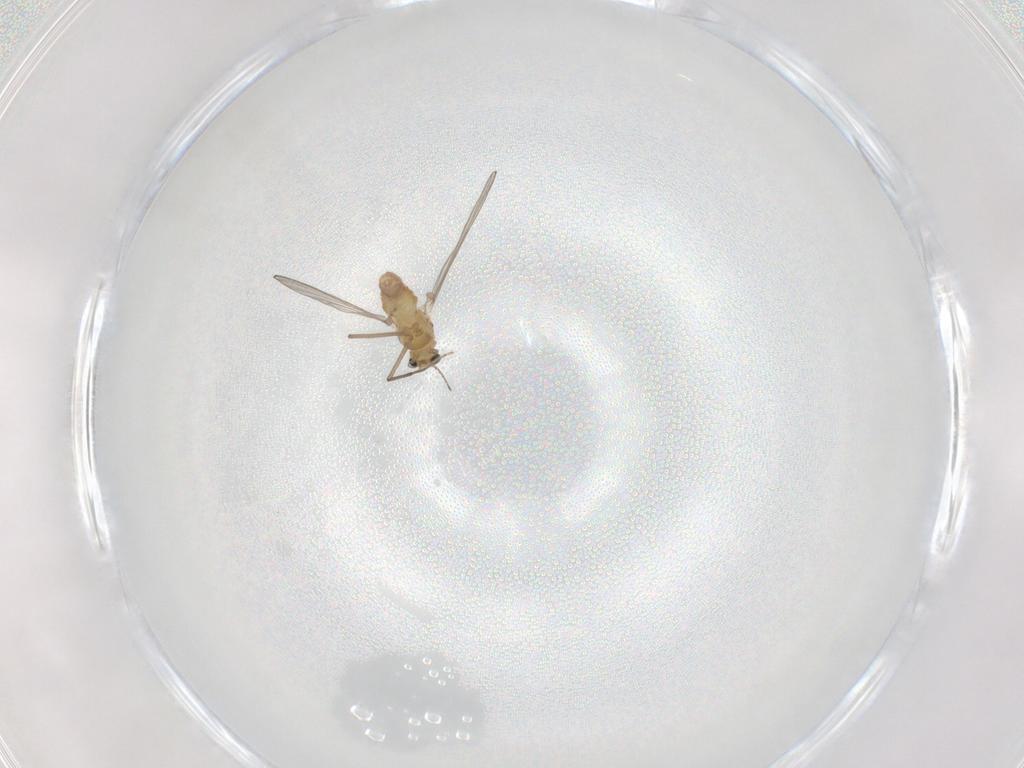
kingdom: Animalia
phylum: Arthropoda
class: Insecta
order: Diptera
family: Chironomidae
